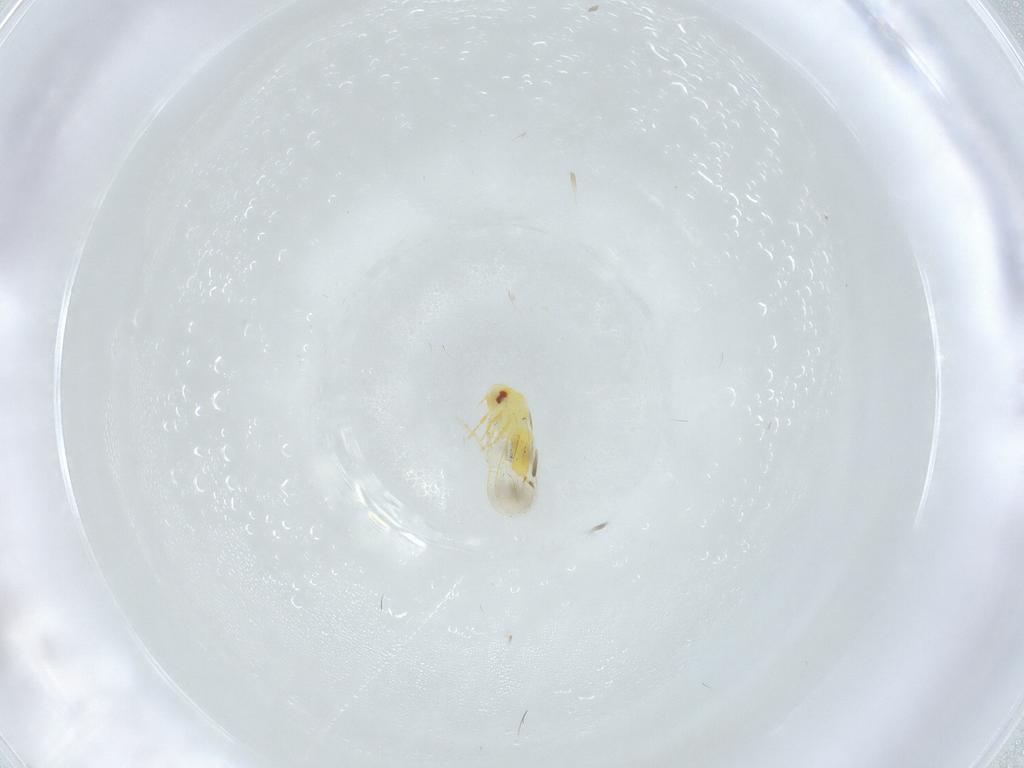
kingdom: Animalia
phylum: Arthropoda
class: Insecta
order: Hemiptera
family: Aleyrodidae
